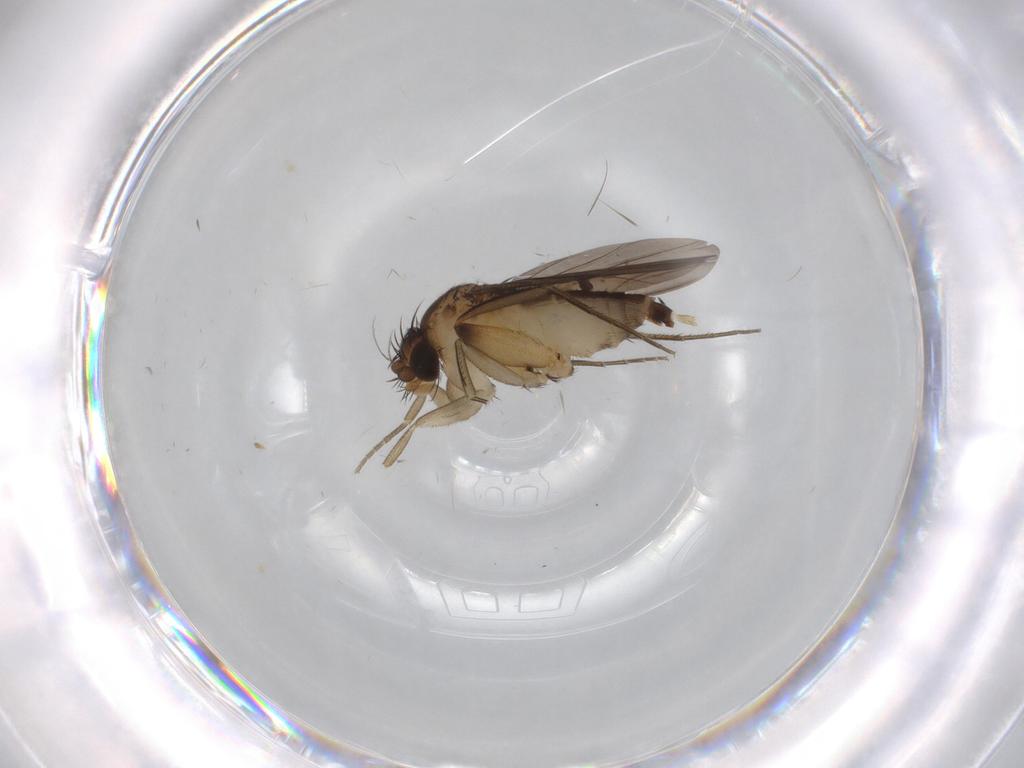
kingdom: Animalia
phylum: Arthropoda
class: Insecta
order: Diptera
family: Phoridae
